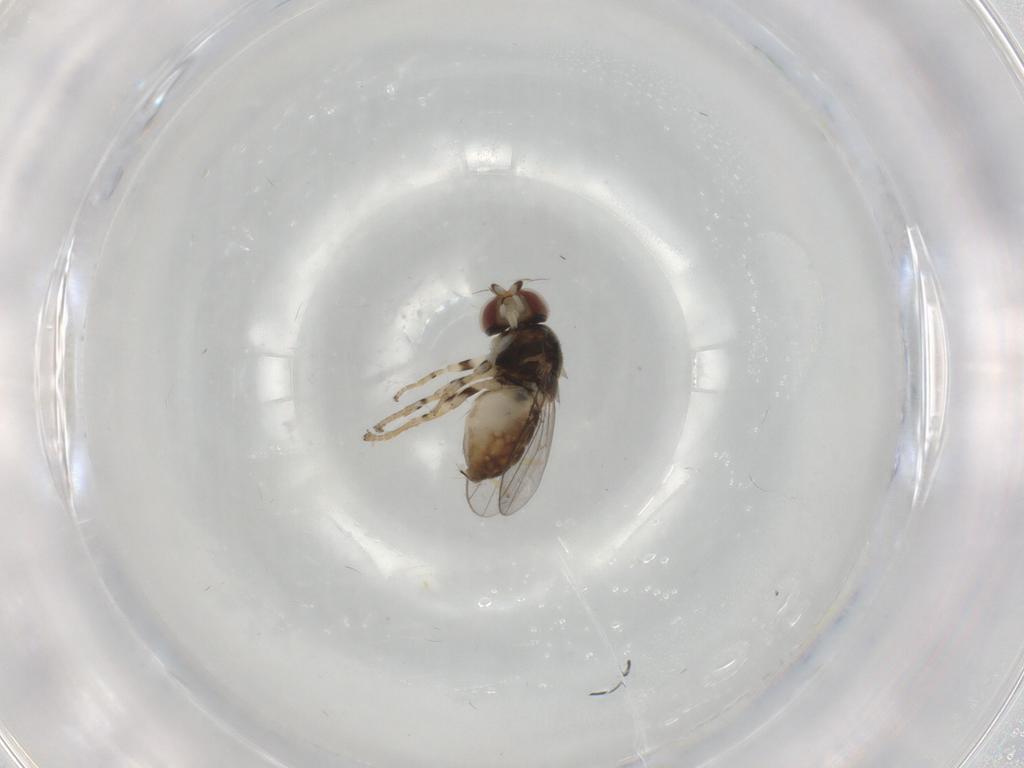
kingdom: Animalia
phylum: Arthropoda
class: Insecta
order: Diptera
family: Chloropidae
